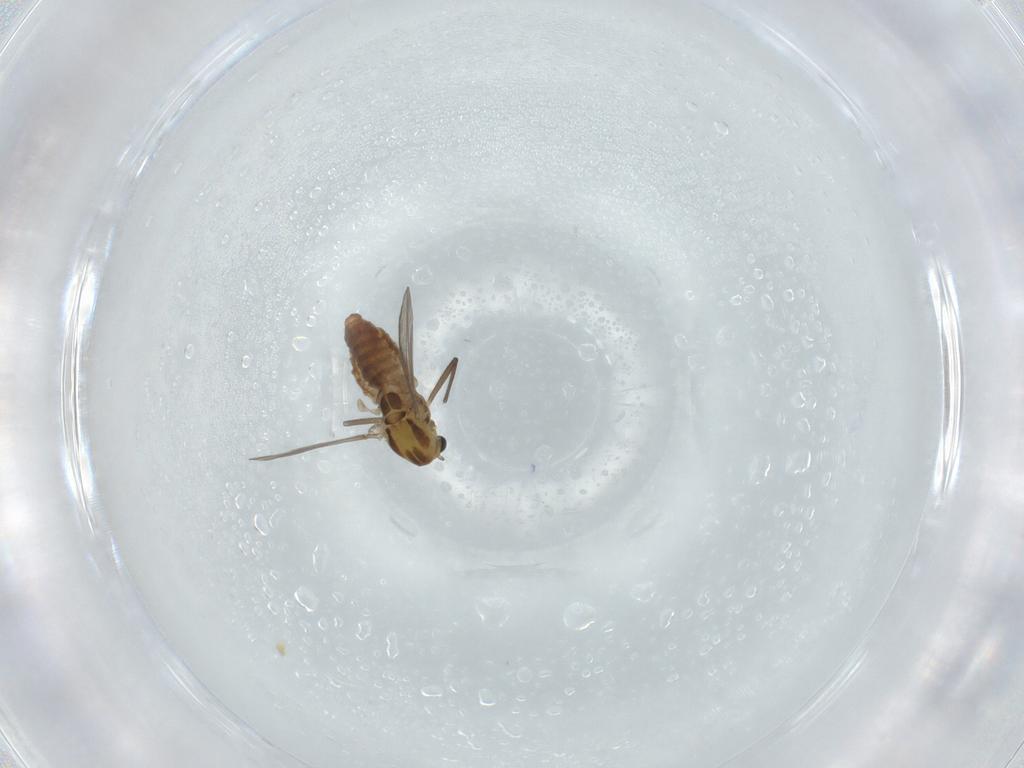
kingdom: Animalia
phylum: Arthropoda
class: Insecta
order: Diptera
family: Chironomidae
